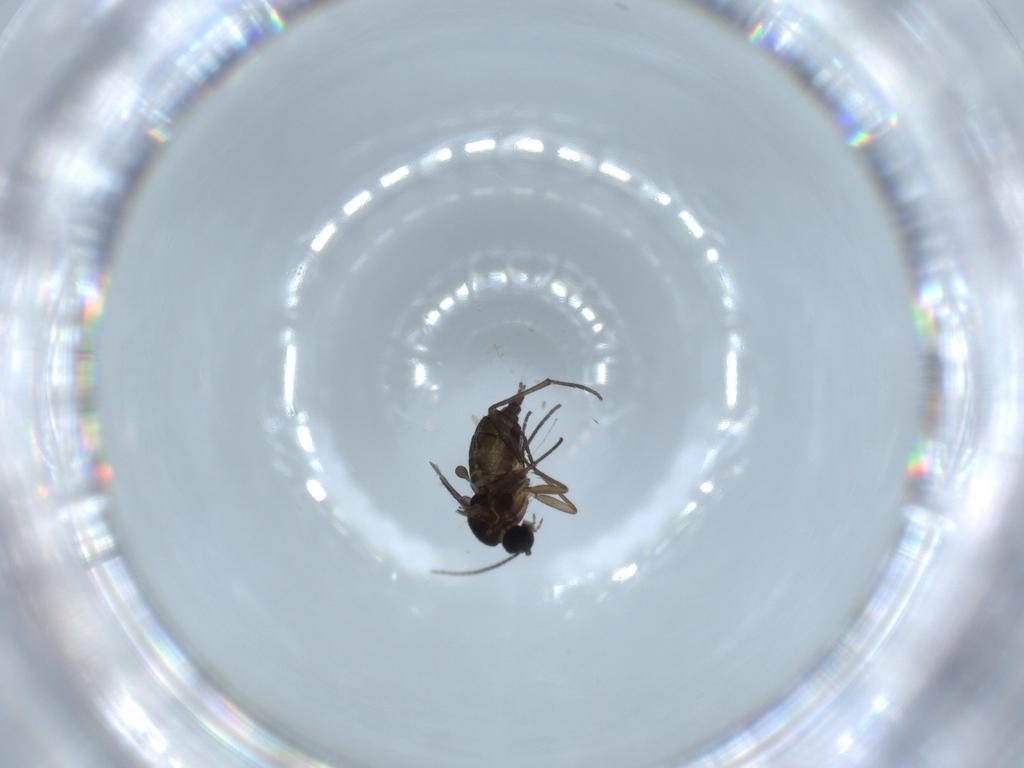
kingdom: Animalia
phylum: Arthropoda
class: Insecta
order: Diptera
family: Sciaridae
